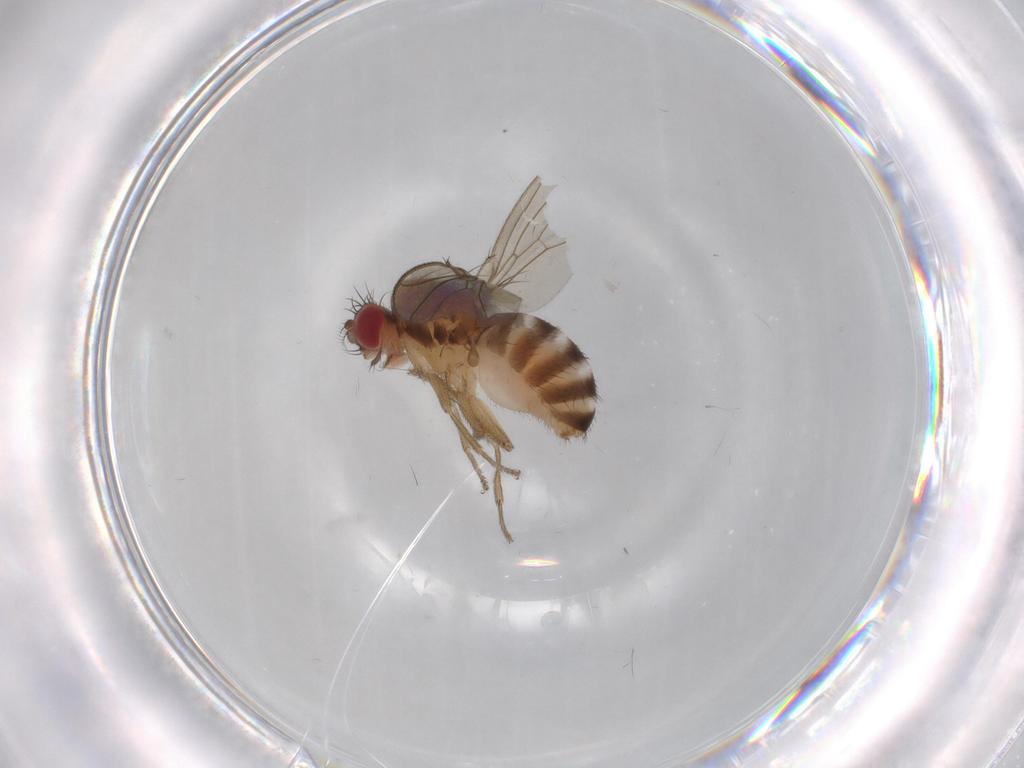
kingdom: Animalia
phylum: Arthropoda
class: Insecta
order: Diptera
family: Drosophilidae
